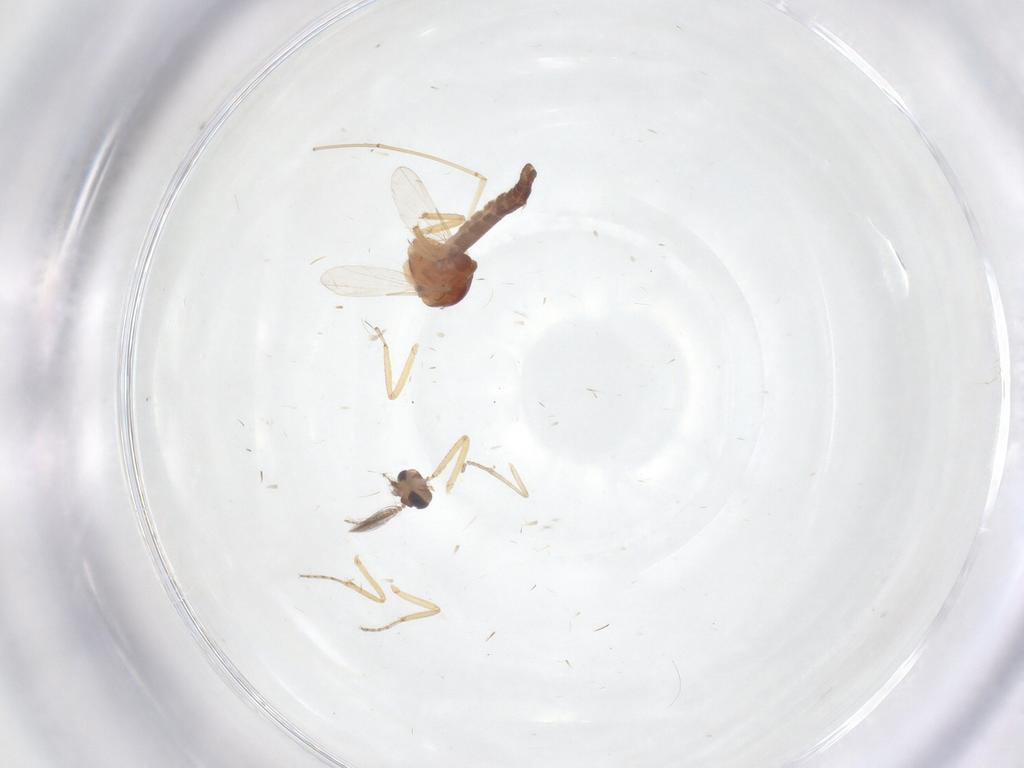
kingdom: Animalia
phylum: Arthropoda
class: Insecta
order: Diptera
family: Ceratopogonidae
